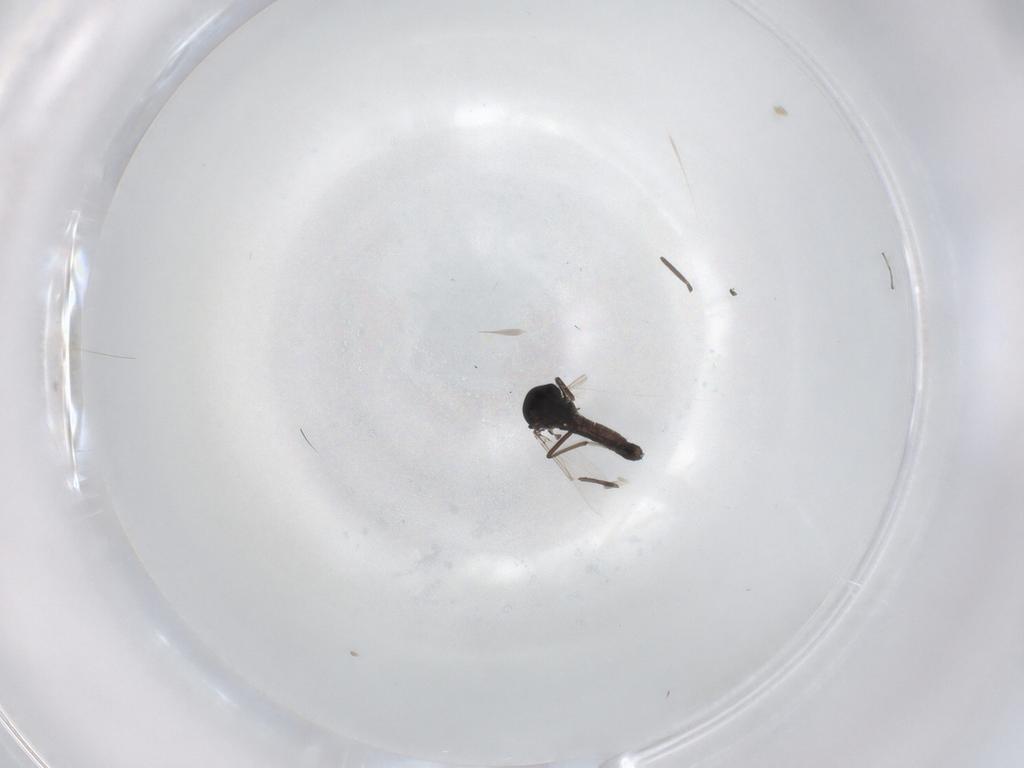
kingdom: Animalia
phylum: Arthropoda
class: Insecta
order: Diptera
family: Ceratopogonidae
